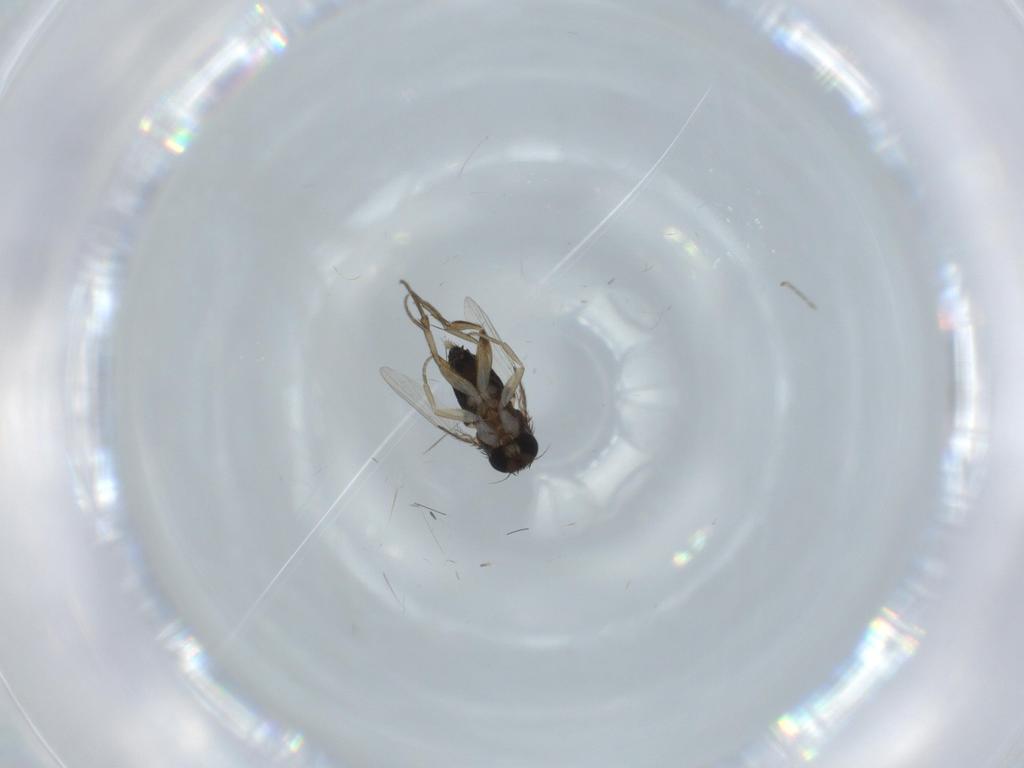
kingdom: Animalia
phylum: Arthropoda
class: Insecta
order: Diptera
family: Phoridae
